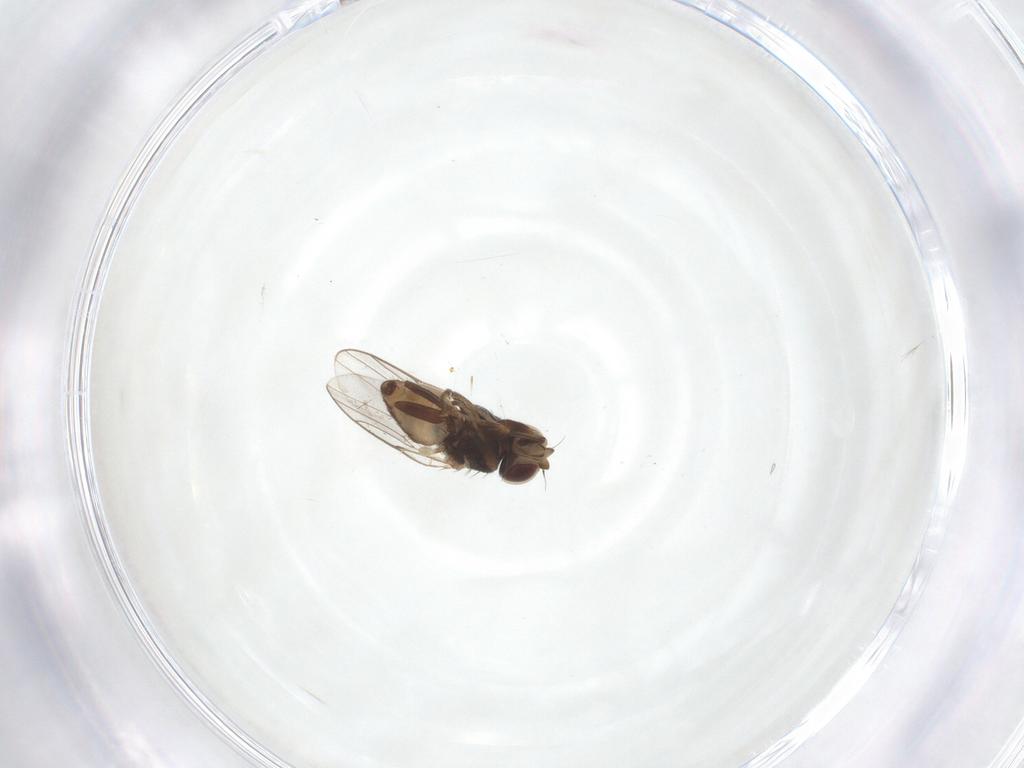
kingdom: Animalia
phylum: Arthropoda
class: Insecta
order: Diptera
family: Chloropidae
